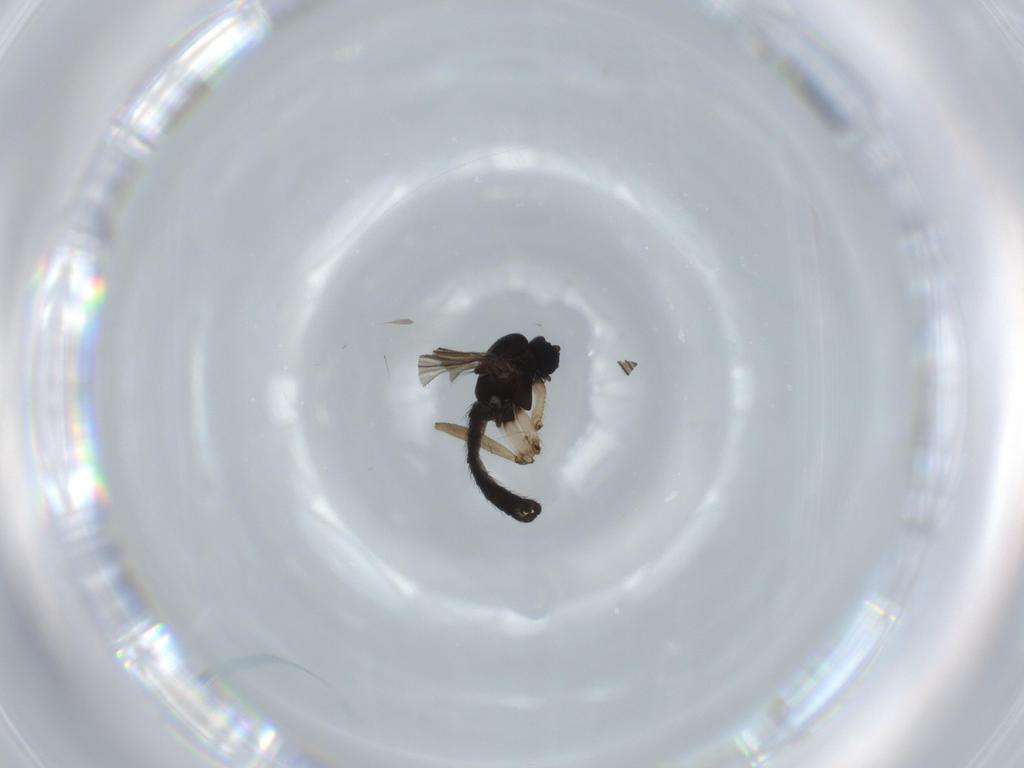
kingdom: Animalia
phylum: Arthropoda
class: Insecta
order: Diptera
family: Sciaridae
